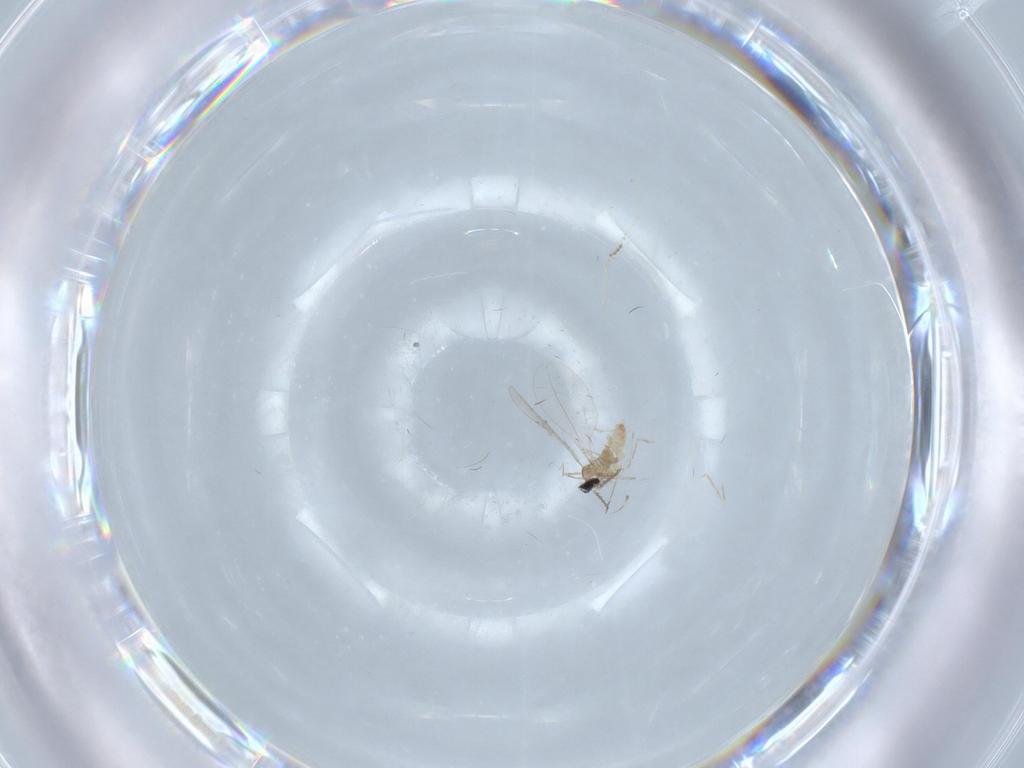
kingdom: Animalia
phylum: Arthropoda
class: Insecta
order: Diptera
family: Cecidomyiidae
